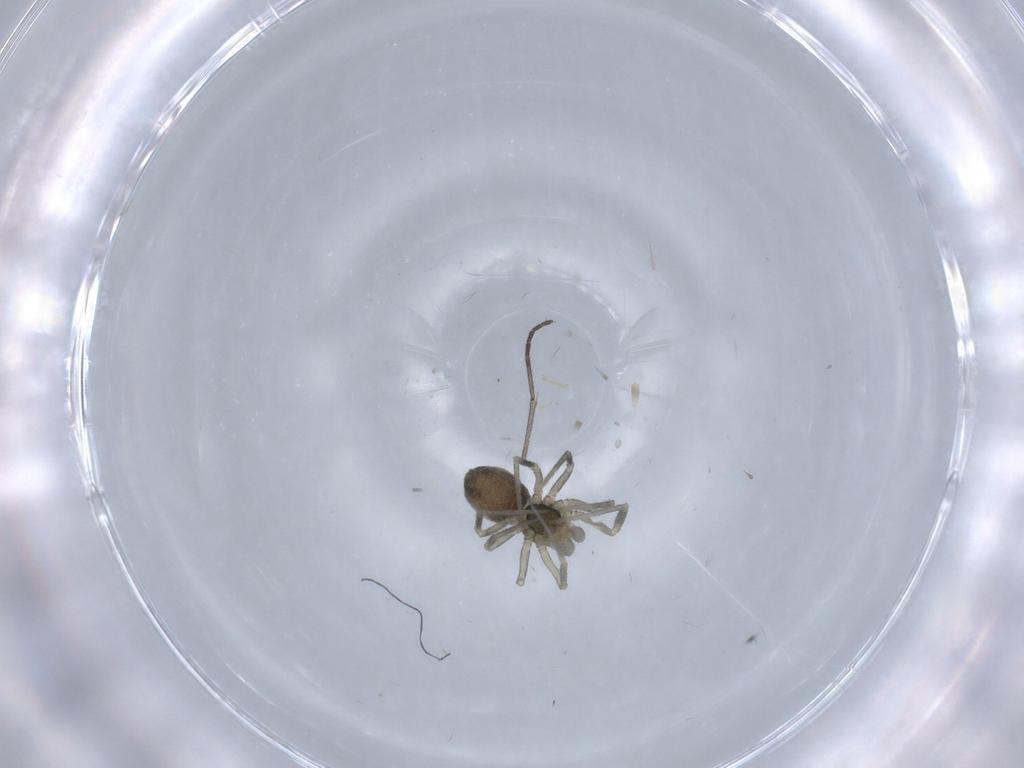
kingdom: Animalia
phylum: Arthropoda
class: Arachnida
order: Araneae
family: Linyphiidae
